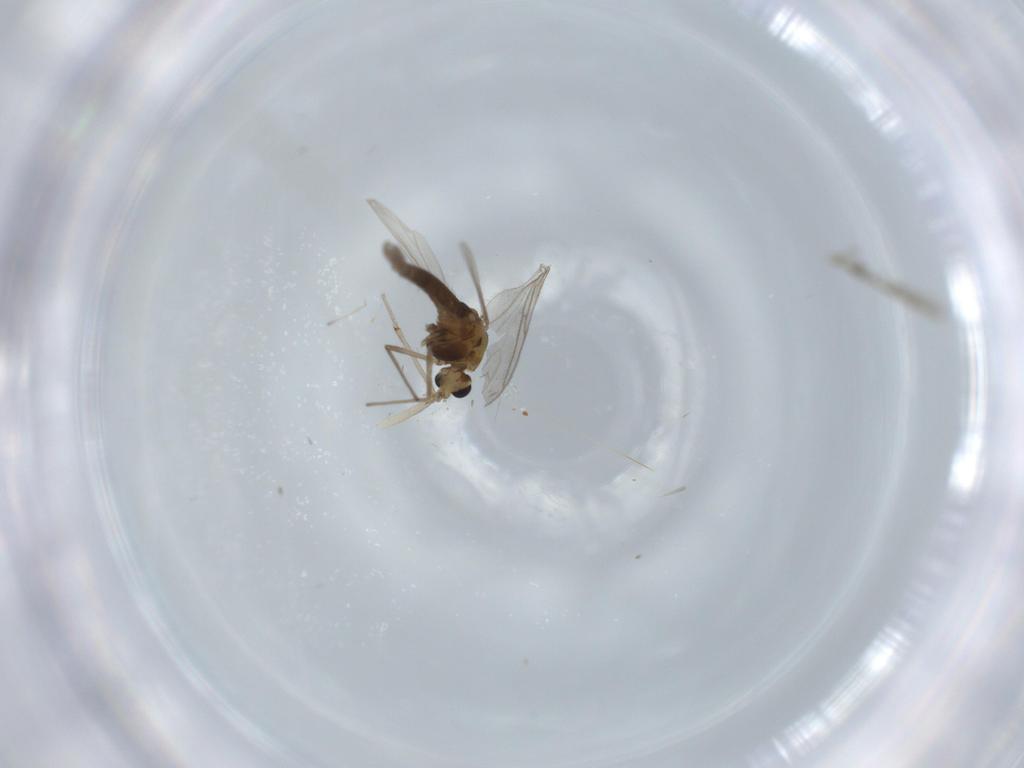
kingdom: Animalia
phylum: Arthropoda
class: Insecta
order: Diptera
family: Chironomidae
